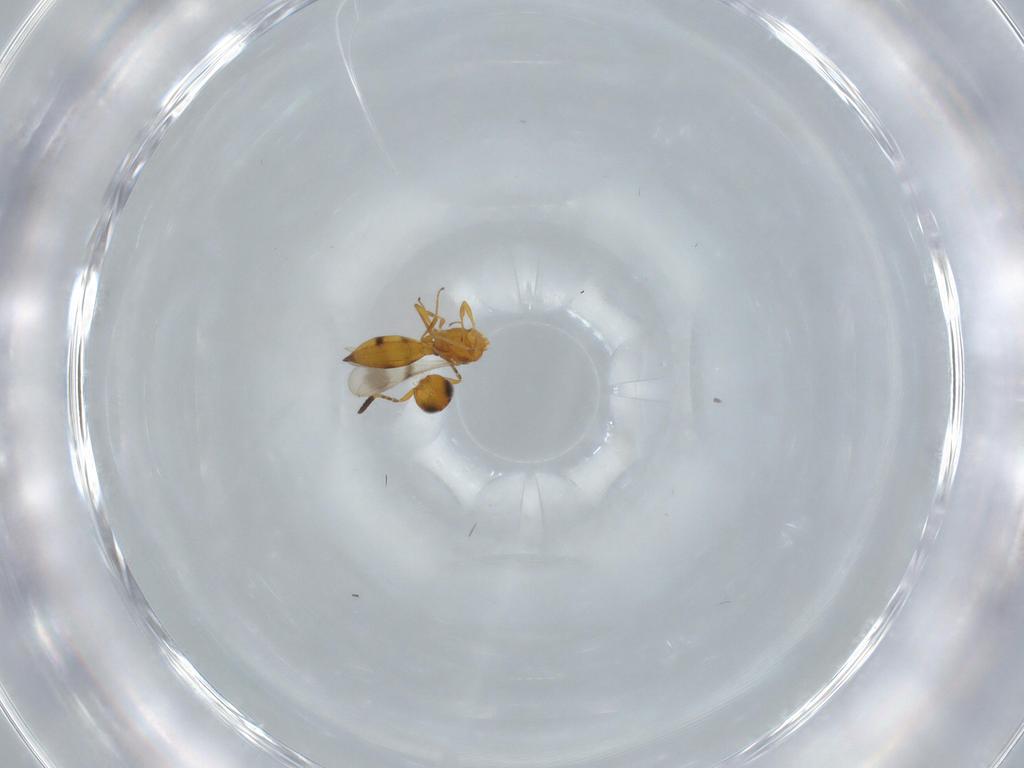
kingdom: Animalia
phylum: Arthropoda
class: Insecta
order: Hymenoptera
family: Scelionidae
